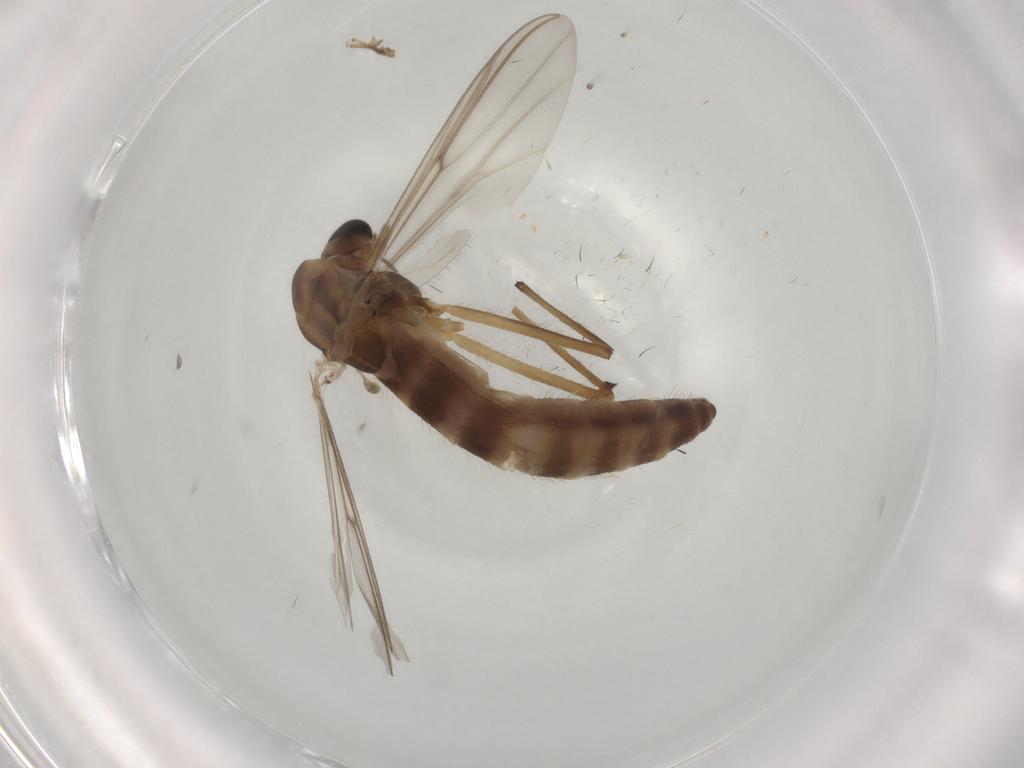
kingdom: Animalia
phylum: Arthropoda
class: Insecta
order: Diptera
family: Chironomidae
